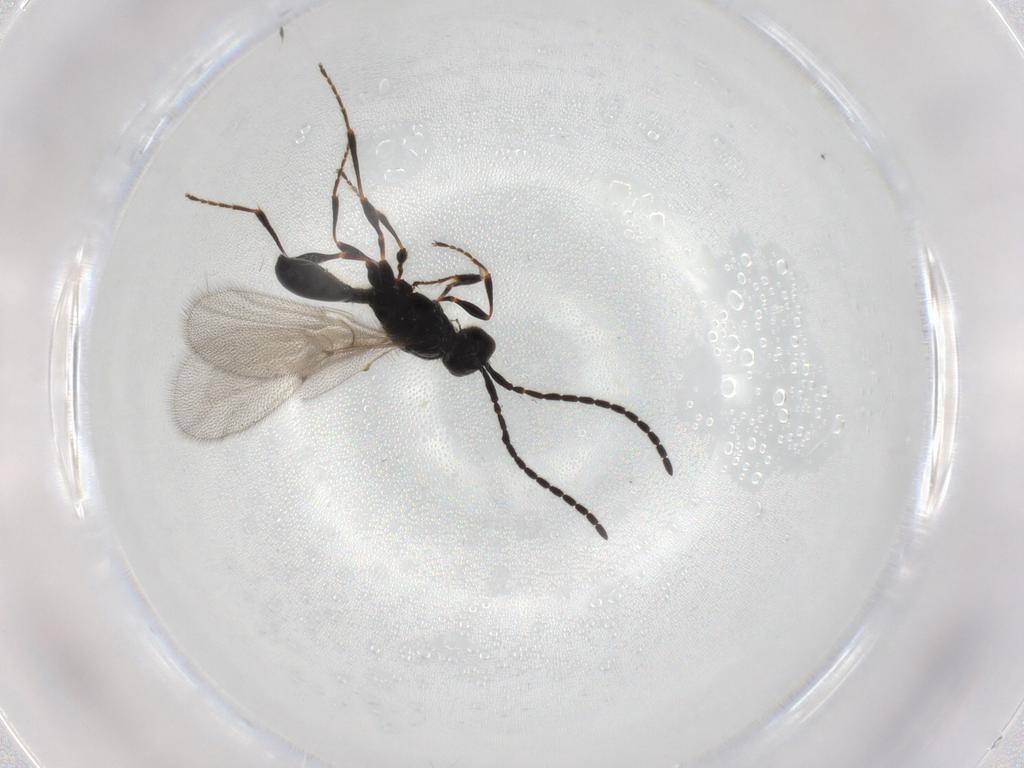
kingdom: Animalia
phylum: Arthropoda
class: Insecta
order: Hymenoptera
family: Diapriidae
